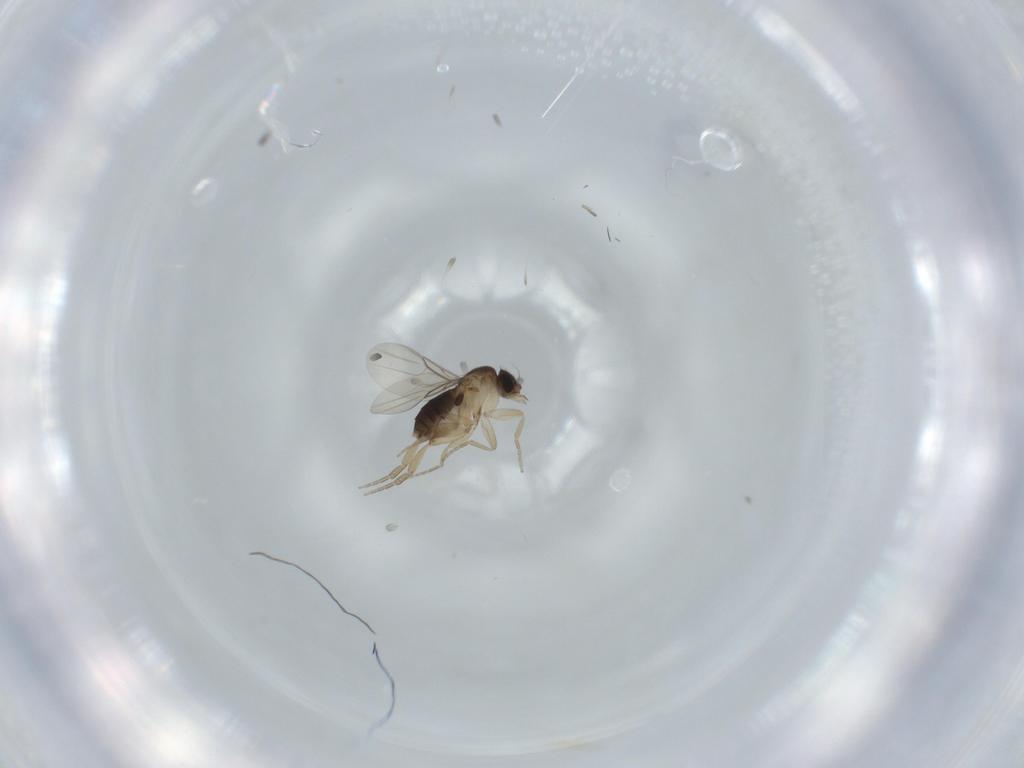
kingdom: Animalia
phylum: Arthropoda
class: Insecta
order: Diptera
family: Phoridae
